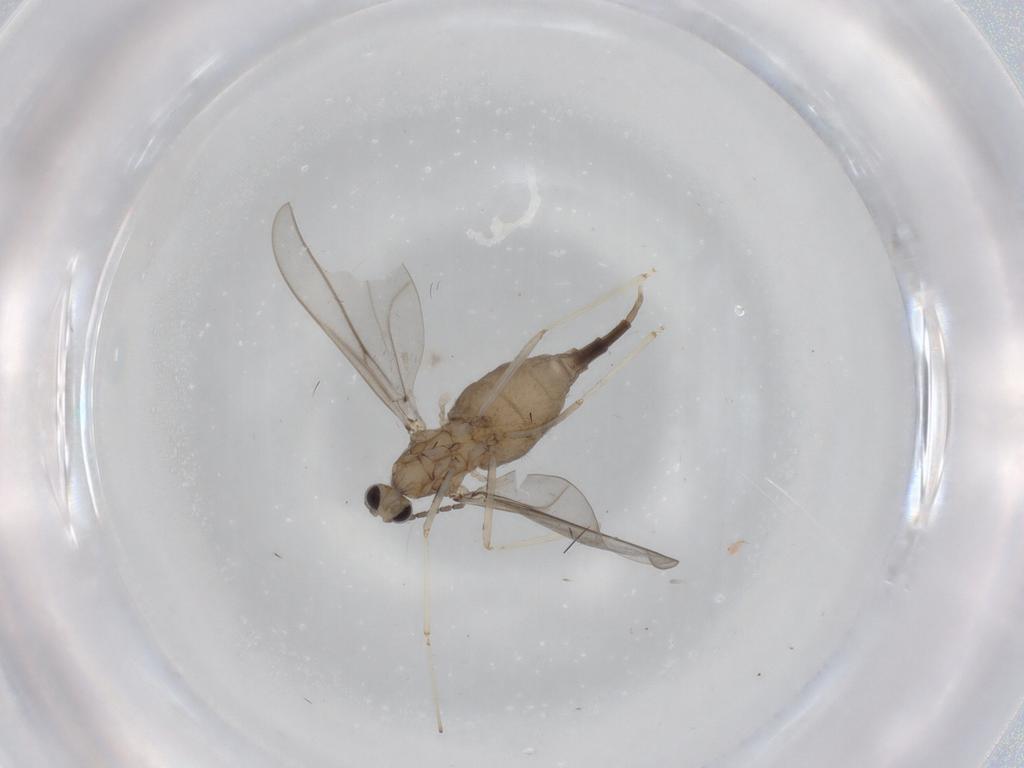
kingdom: Animalia
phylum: Arthropoda
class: Insecta
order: Diptera
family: Cecidomyiidae
